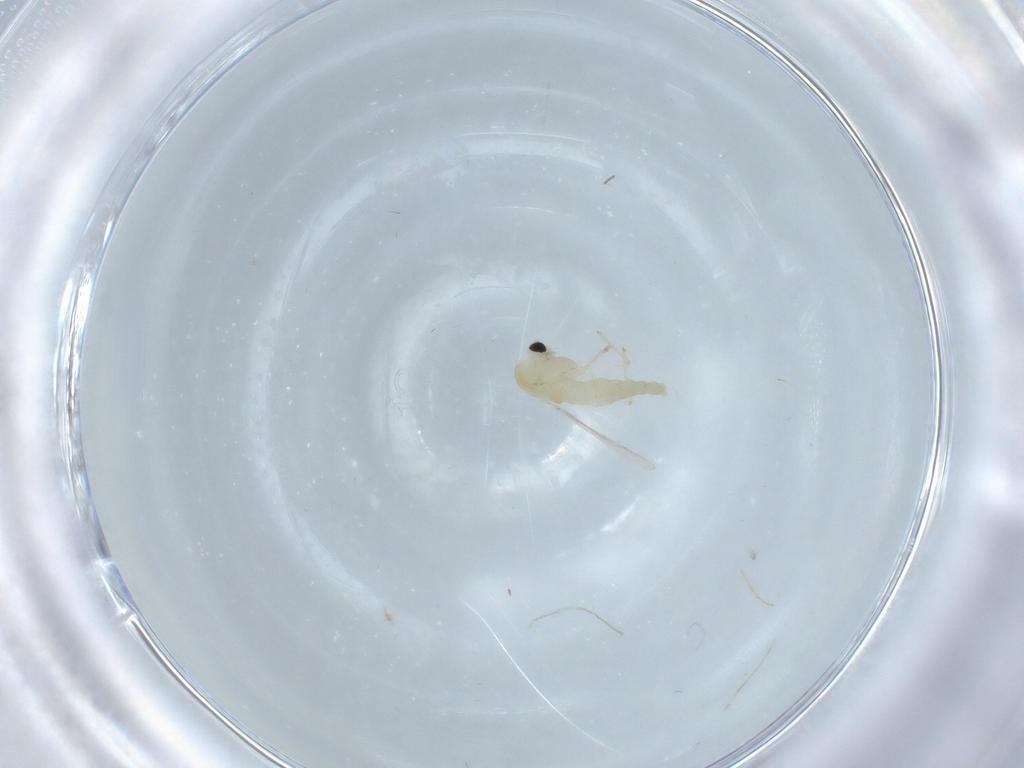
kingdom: Animalia
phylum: Arthropoda
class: Insecta
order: Diptera
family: Chironomidae
